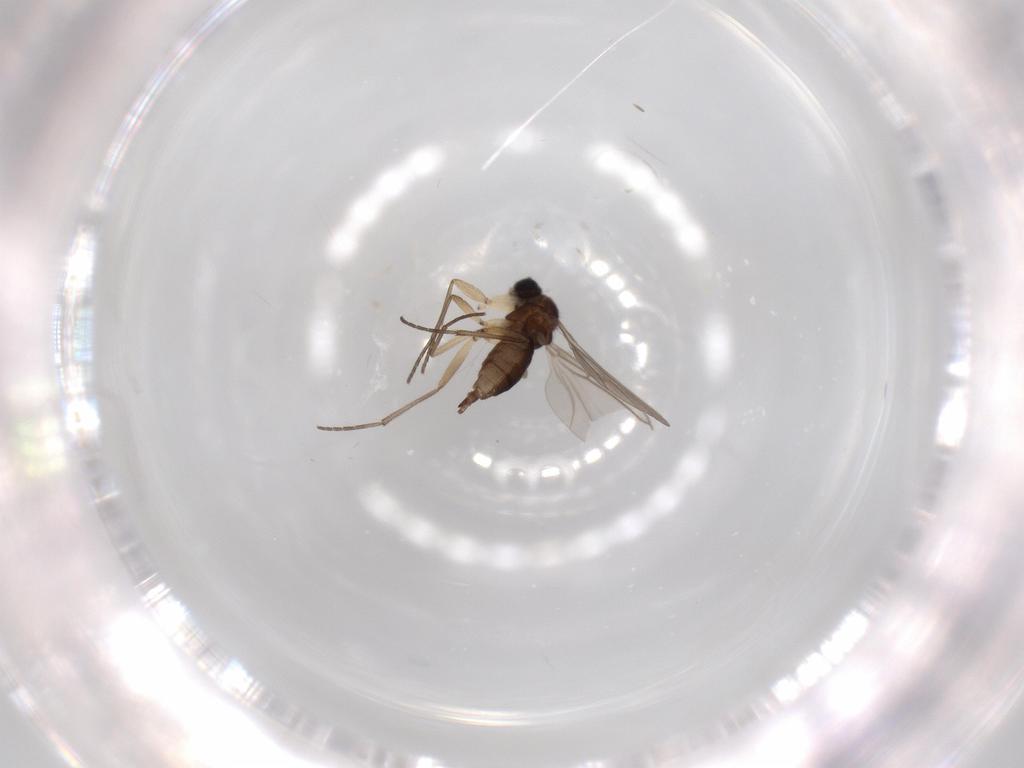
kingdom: Animalia
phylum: Arthropoda
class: Insecta
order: Diptera
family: Sciaridae
